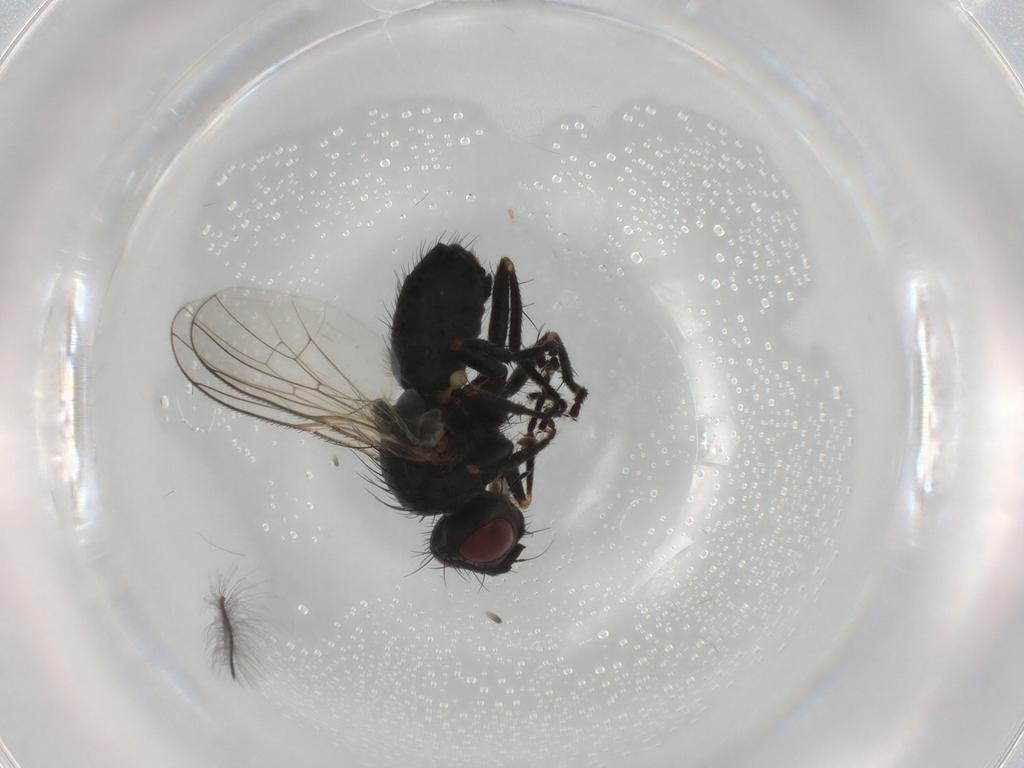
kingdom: Animalia
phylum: Arthropoda
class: Insecta
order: Diptera
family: Muscidae
